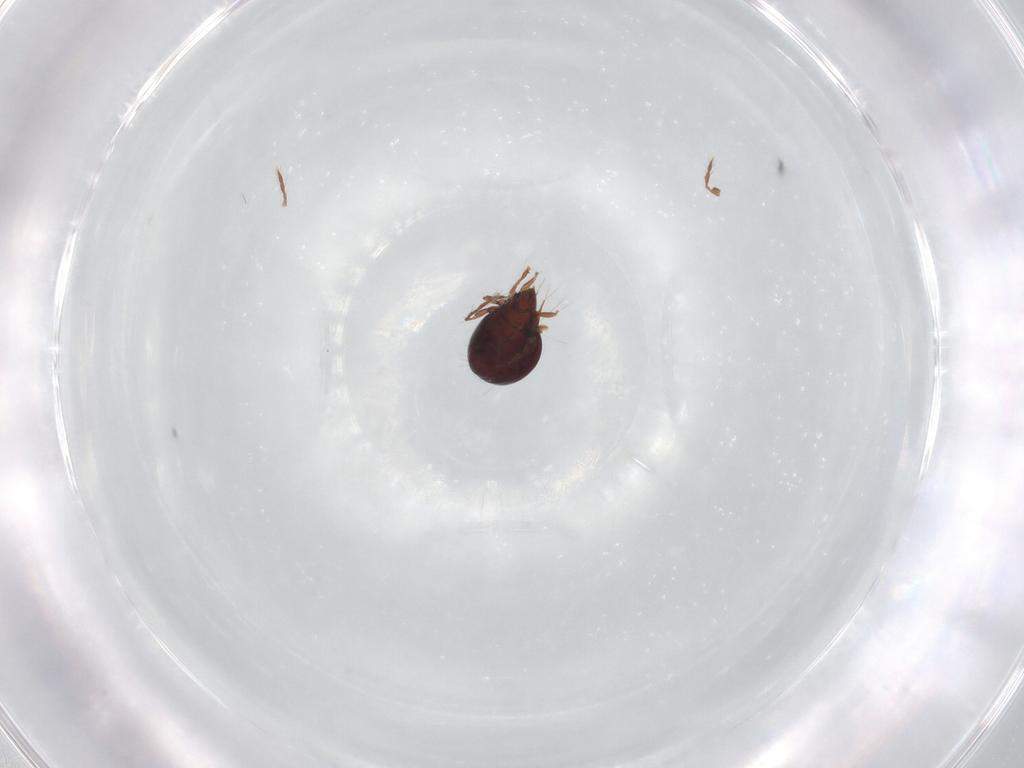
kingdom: Animalia
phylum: Arthropoda
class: Arachnida
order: Sarcoptiformes
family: Ceratoppiidae
